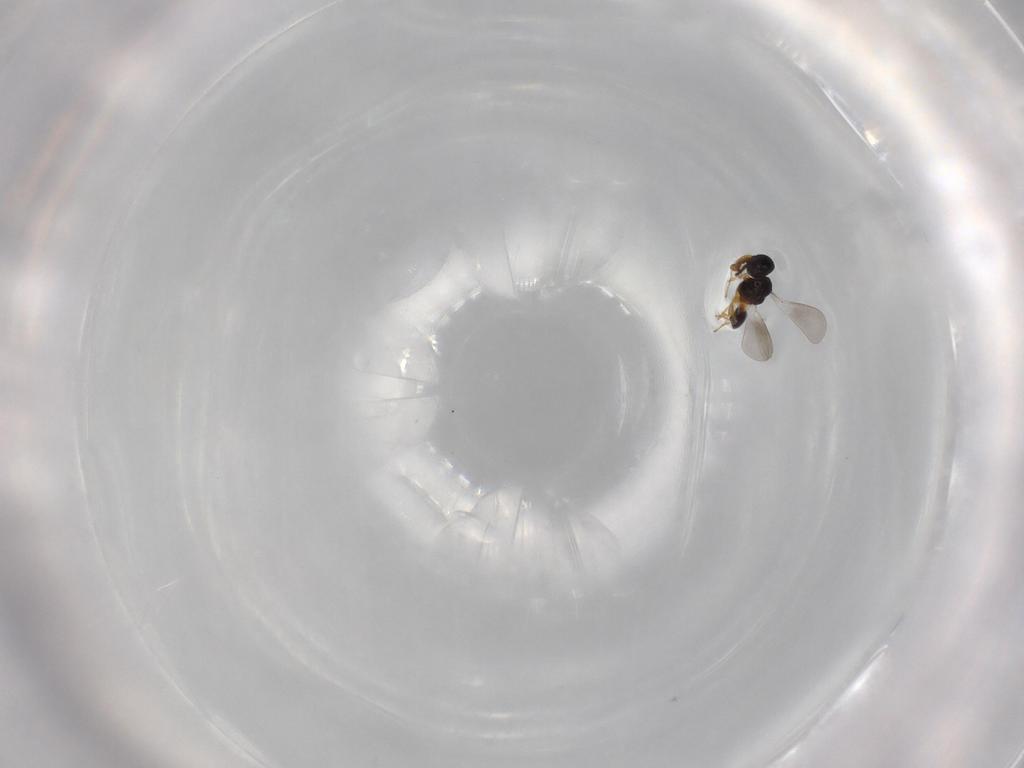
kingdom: Animalia
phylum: Arthropoda
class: Insecta
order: Hymenoptera
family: Platygastridae
